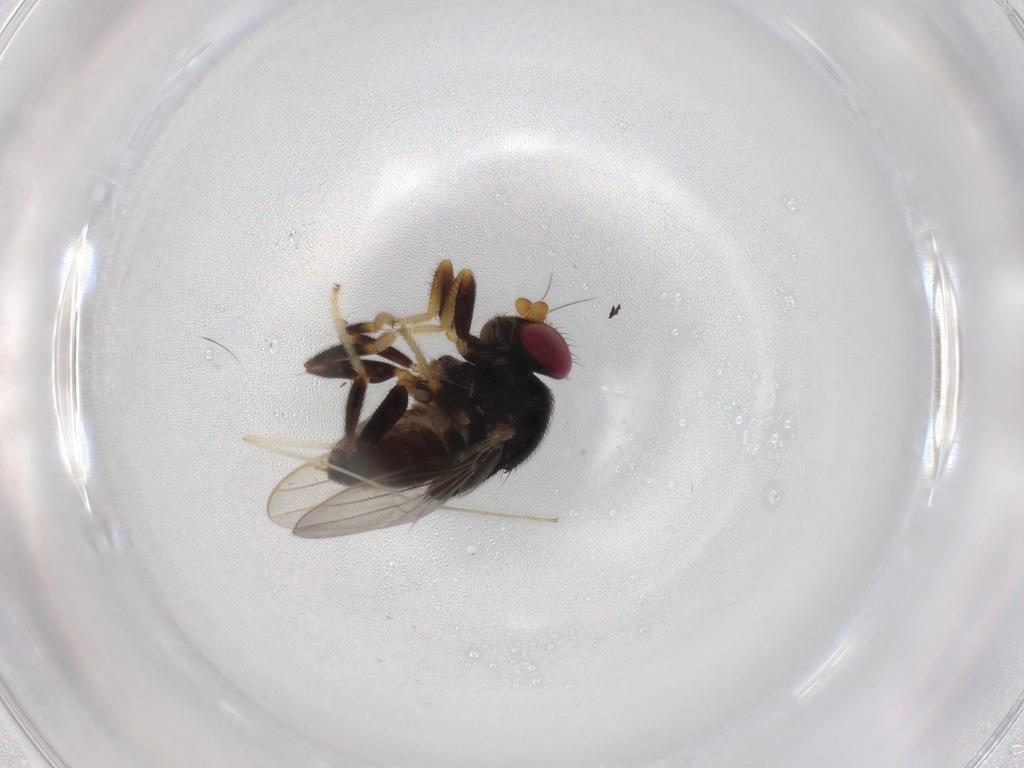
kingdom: Animalia
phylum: Arthropoda
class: Insecta
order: Diptera
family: Chloropidae
